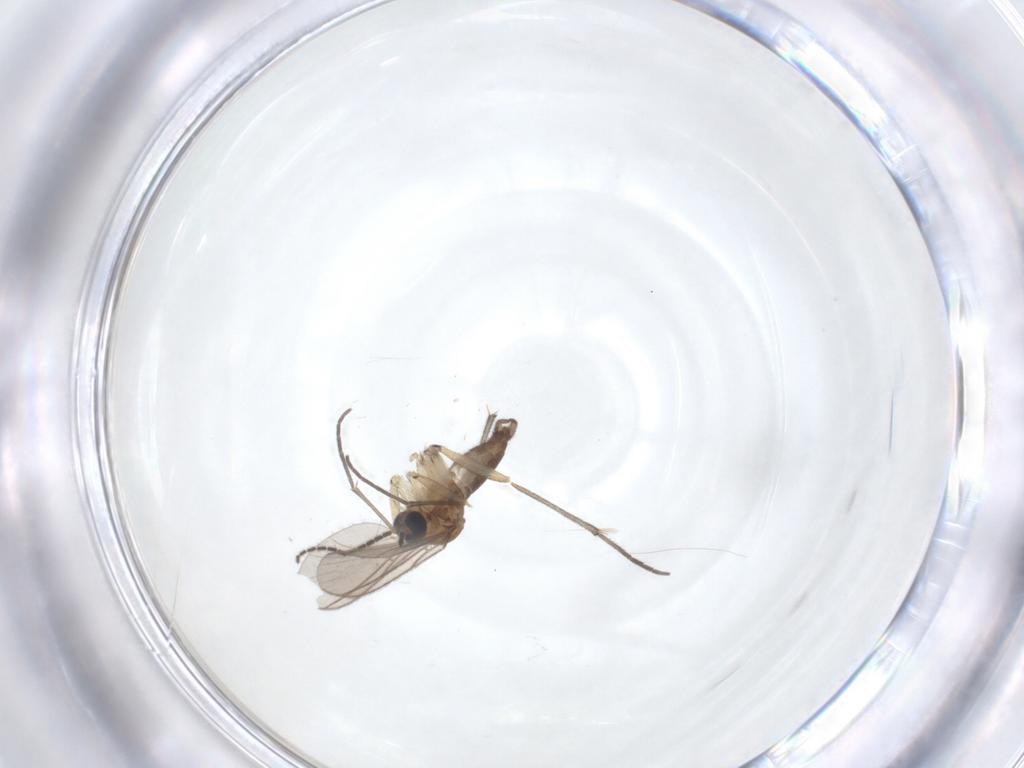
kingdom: Animalia
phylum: Arthropoda
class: Insecta
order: Diptera
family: Sciaridae
